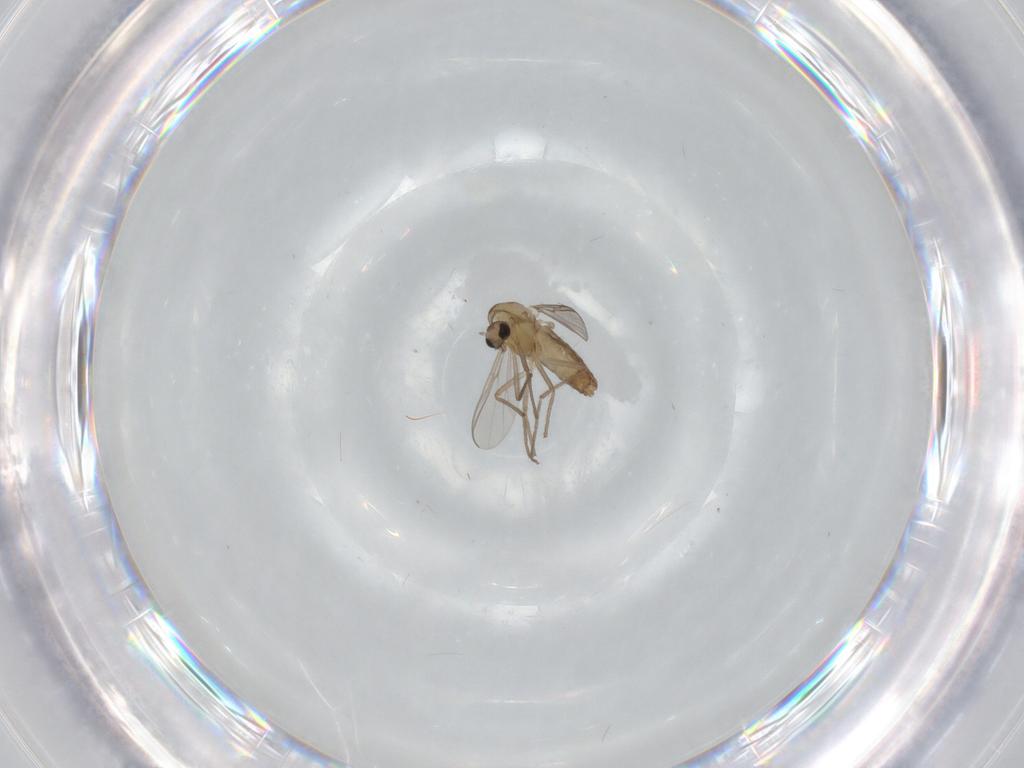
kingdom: Animalia
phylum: Arthropoda
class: Insecta
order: Diptera
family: Chironomidae
